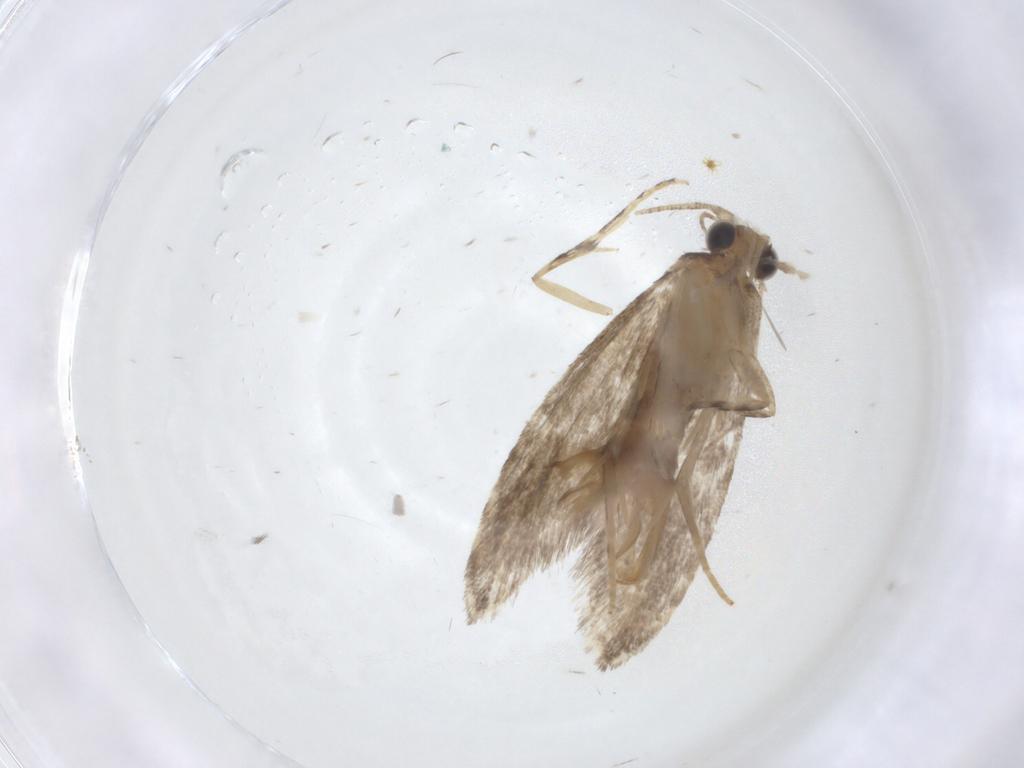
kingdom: Animalia
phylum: Arthropoda
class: Insecta
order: Lepidoptera
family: Tineidae
